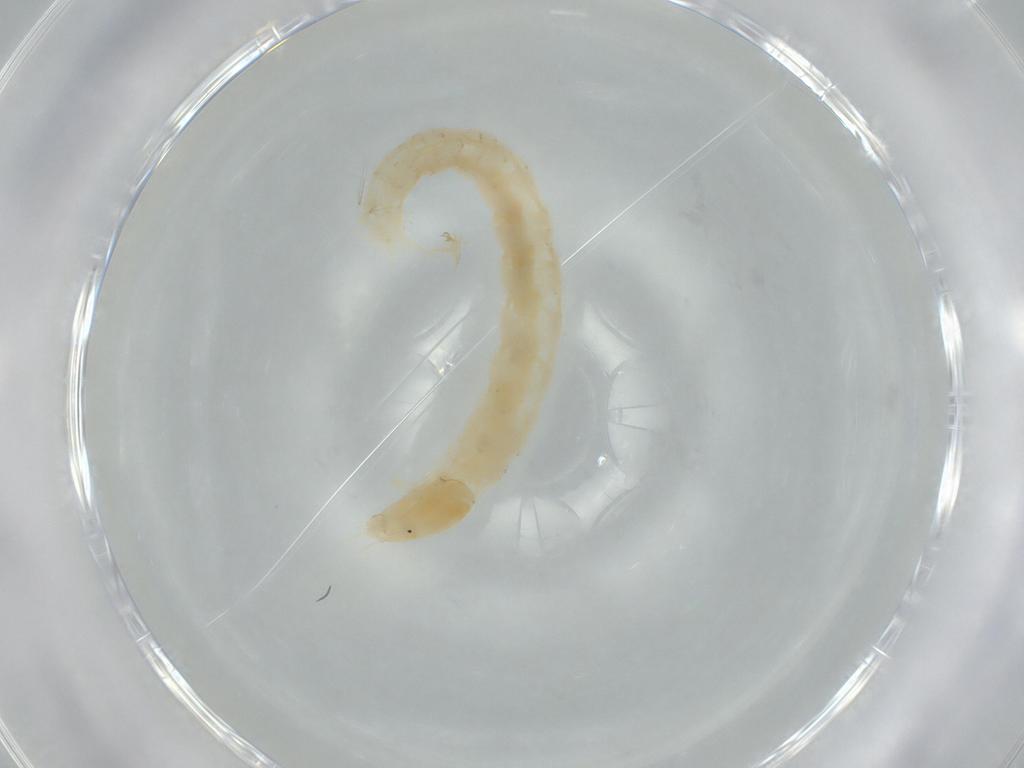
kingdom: Animalia
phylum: Arthropoda
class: Insecta
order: Diptera
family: Chironomidae
